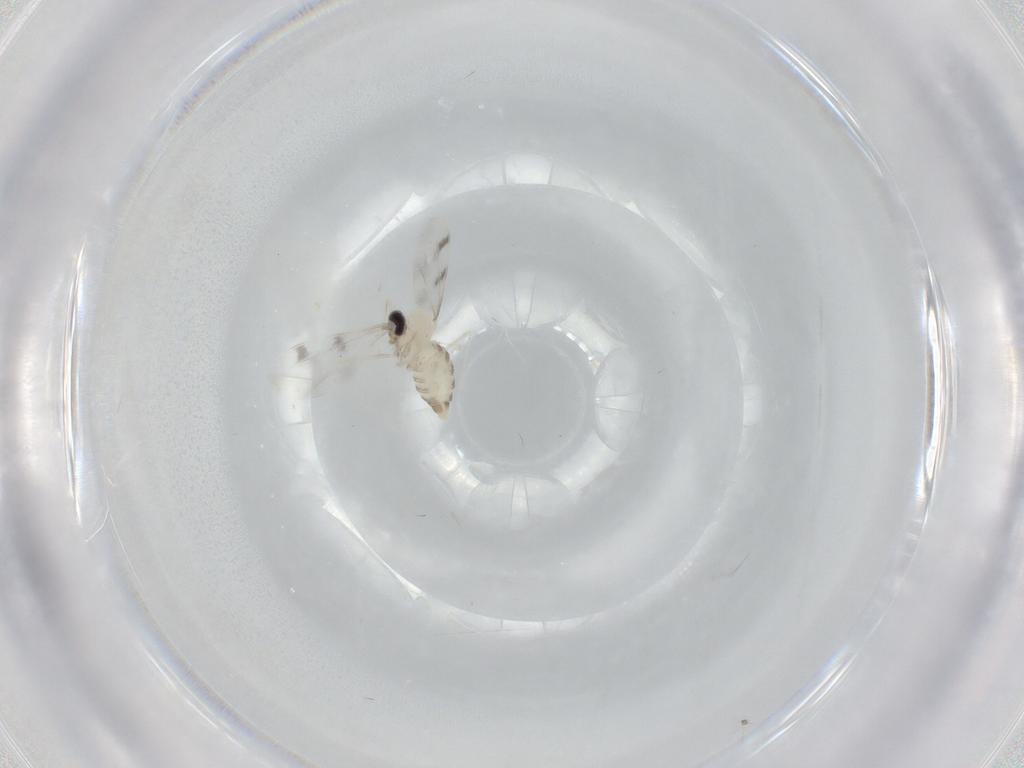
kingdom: Animalia
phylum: Arthropoda
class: Insecta
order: Diptera
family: Cecidomyiidae
